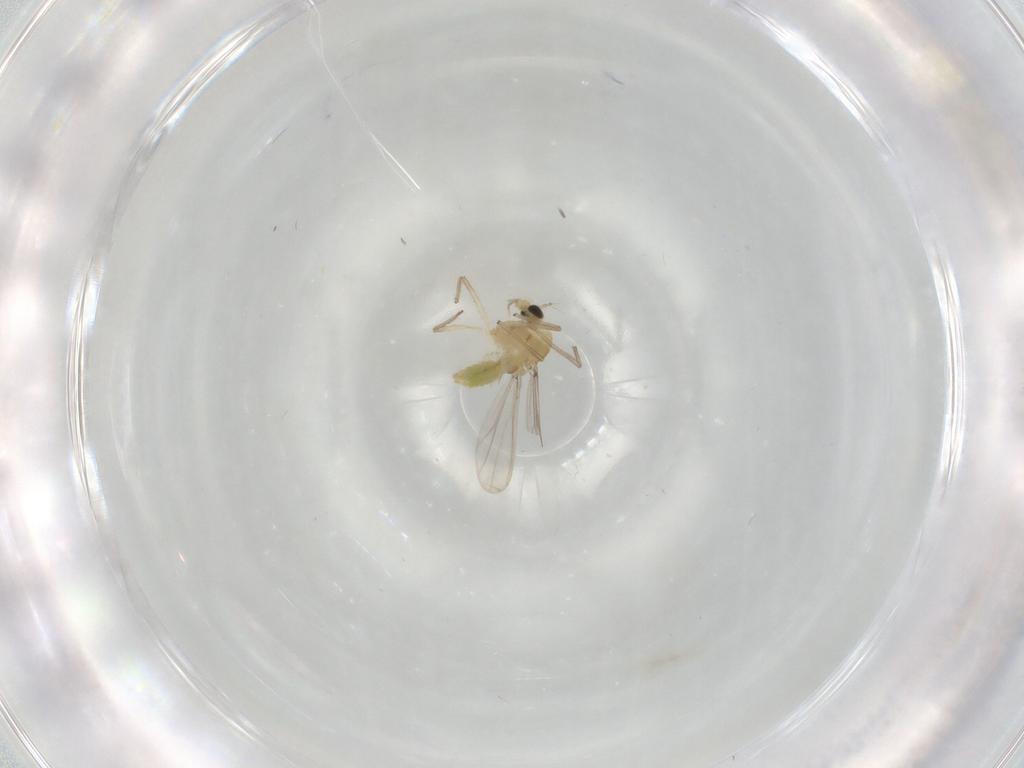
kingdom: Animalia
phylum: Arthropoda
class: Insecta
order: Diptera
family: Chironomidae
